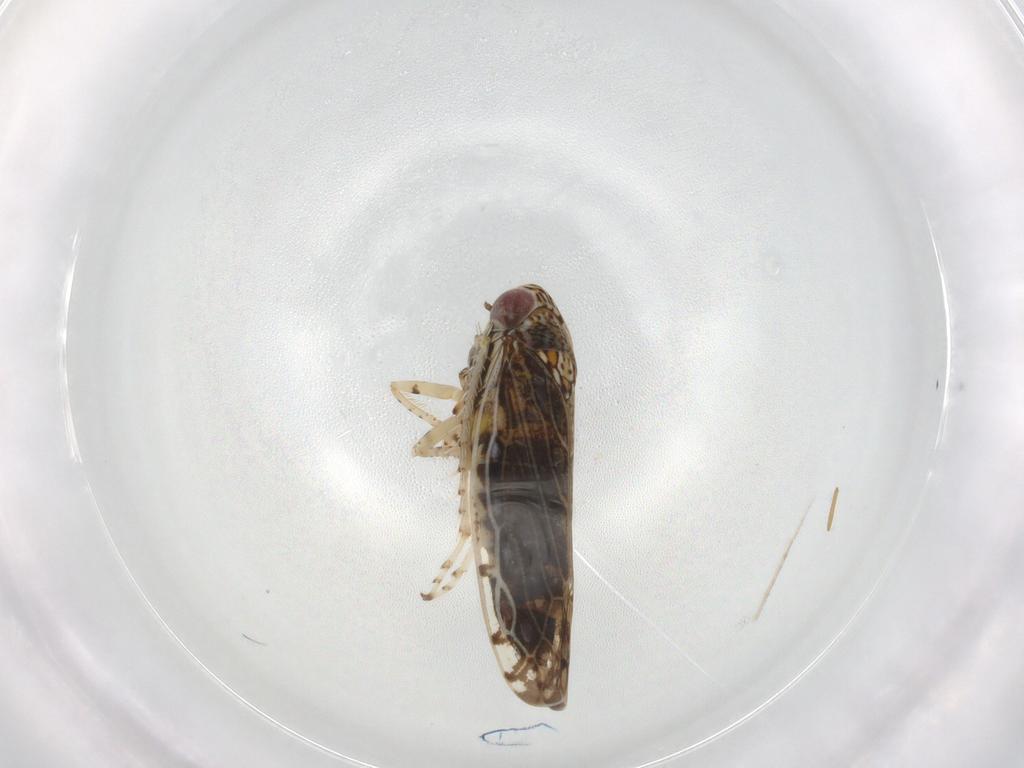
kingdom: Animalia
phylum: Arthropoda
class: Insecta
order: Hemiptera
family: Cicadellidae
